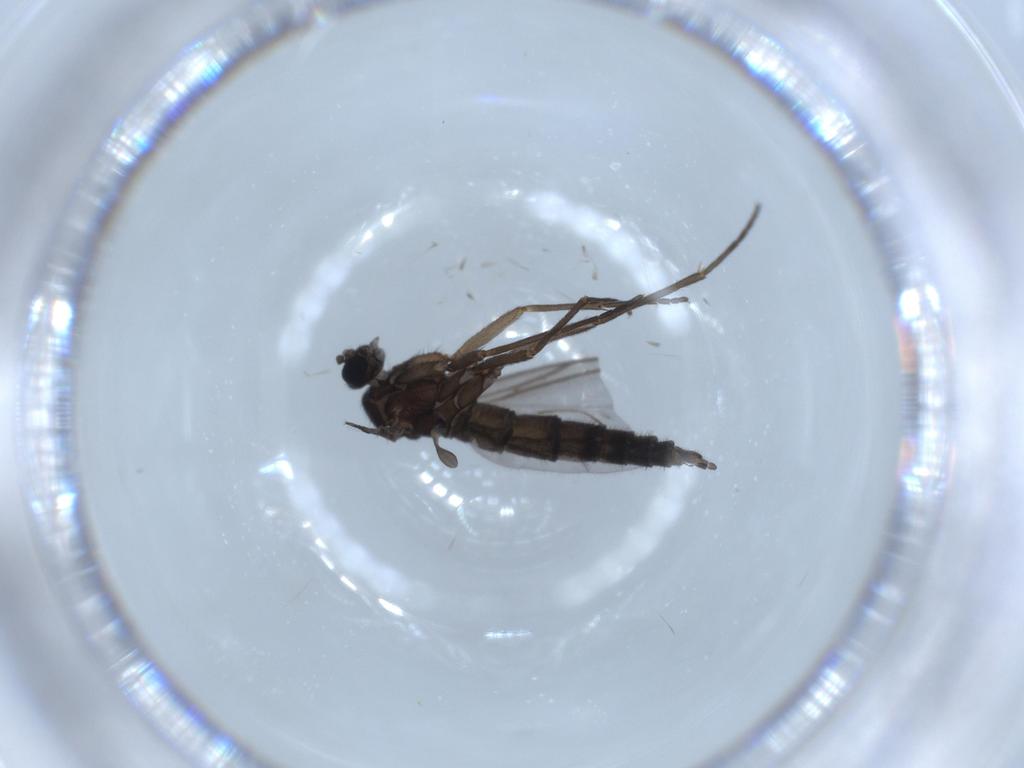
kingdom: Animalia
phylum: Arthropoda
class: Insecta
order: Diptera
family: Sciaridae
